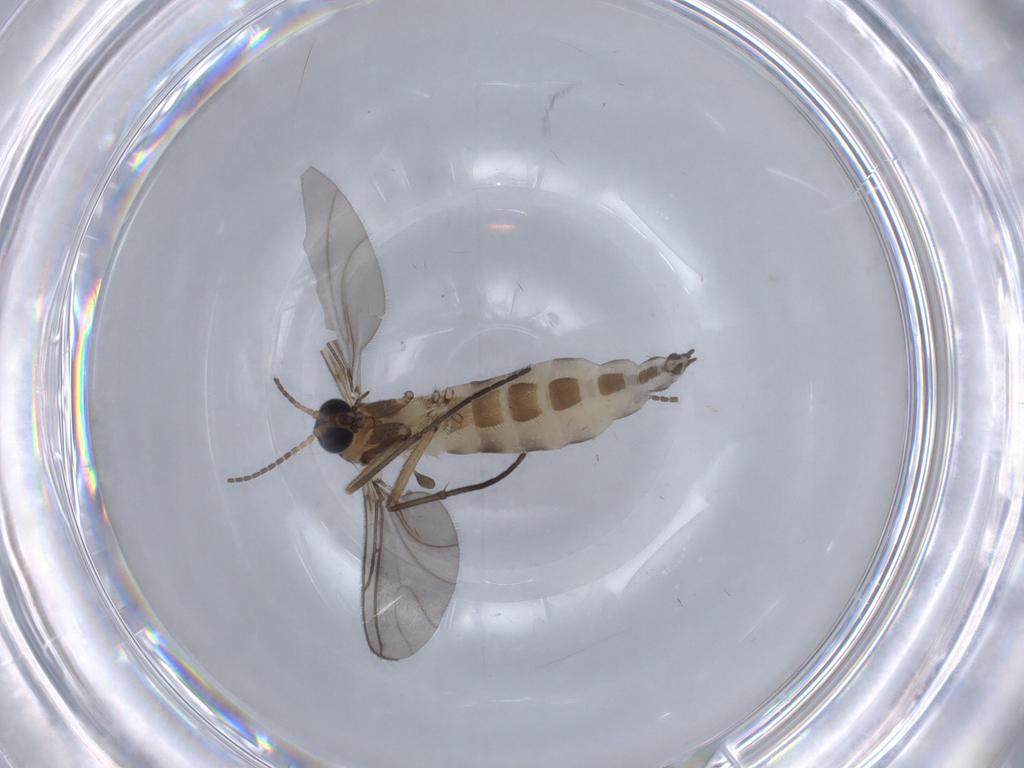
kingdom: Animalia
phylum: Arthropoda
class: Insecta
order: Diptera
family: Sciaridae
